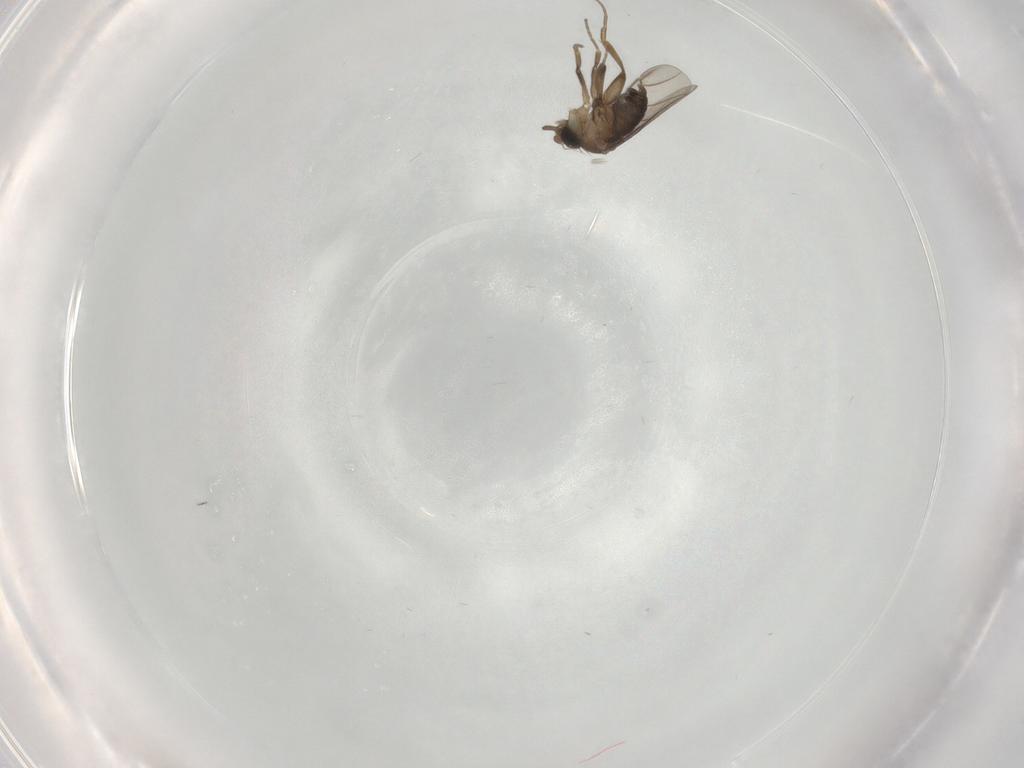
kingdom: Animalia
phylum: Arthropoda
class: Insecta
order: Diptera
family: Phoridae
